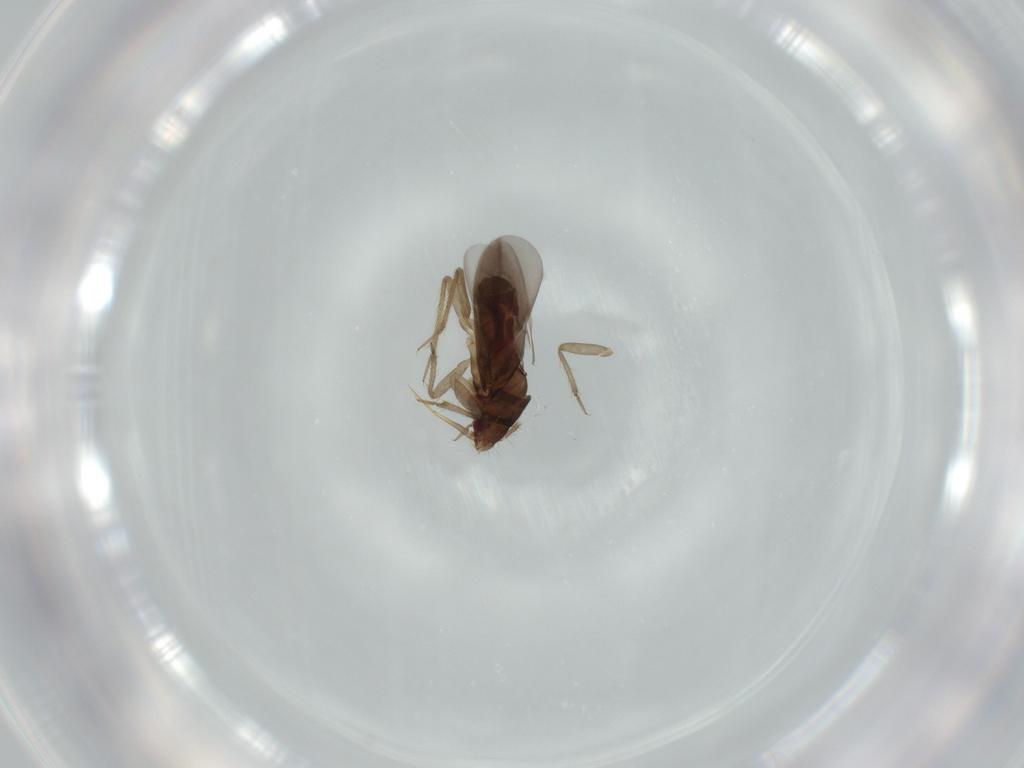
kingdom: Animalia
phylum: Arthropoda
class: Insecta
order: Hemiptera
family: Ceratocombidae
